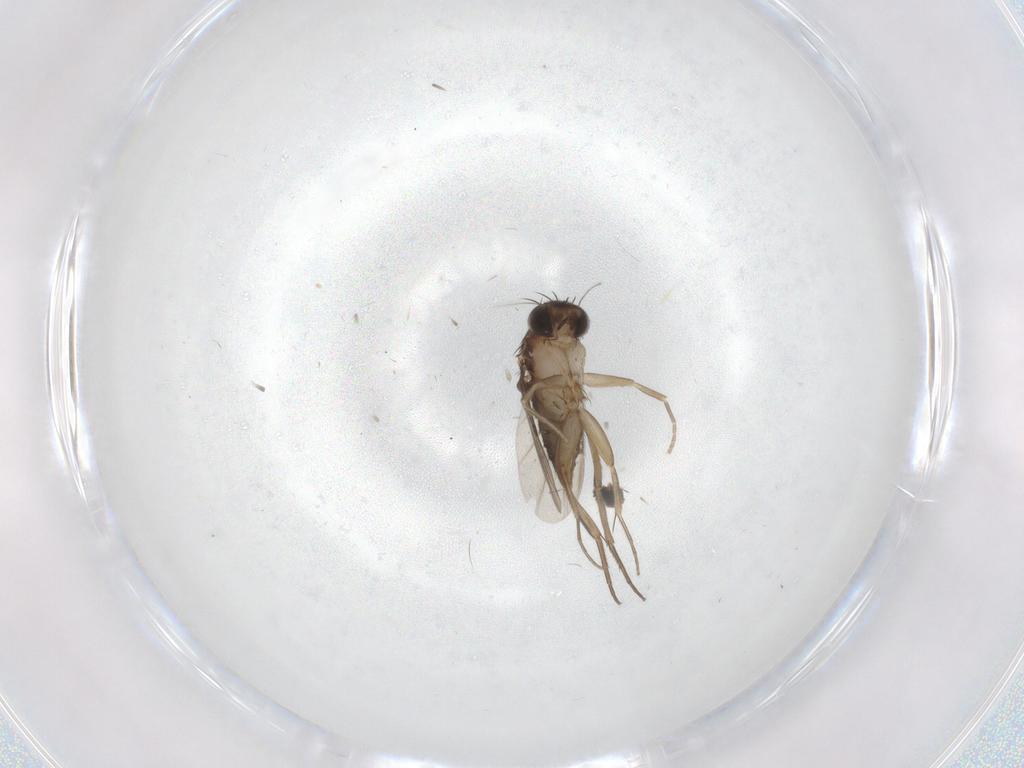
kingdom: Animalia
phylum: Arthropoda
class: Insecta
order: Diptera
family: Phoridae
